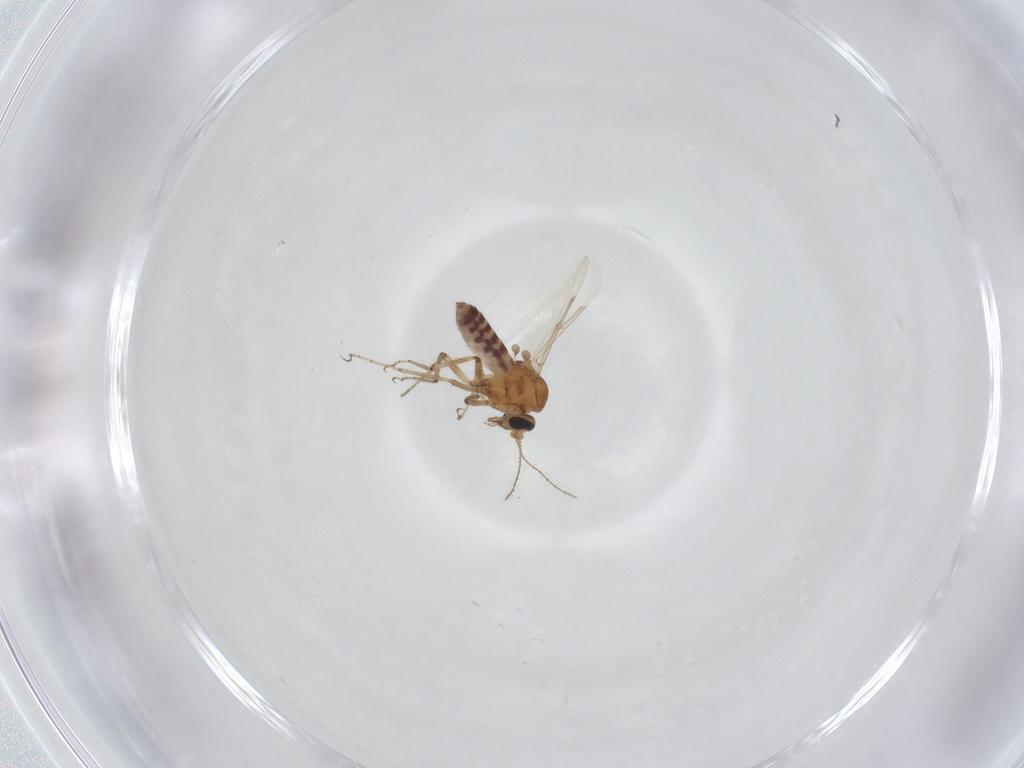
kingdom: Animalia
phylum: Arthropoda
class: Insecta
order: Diptera
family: Ceratopogonidae
